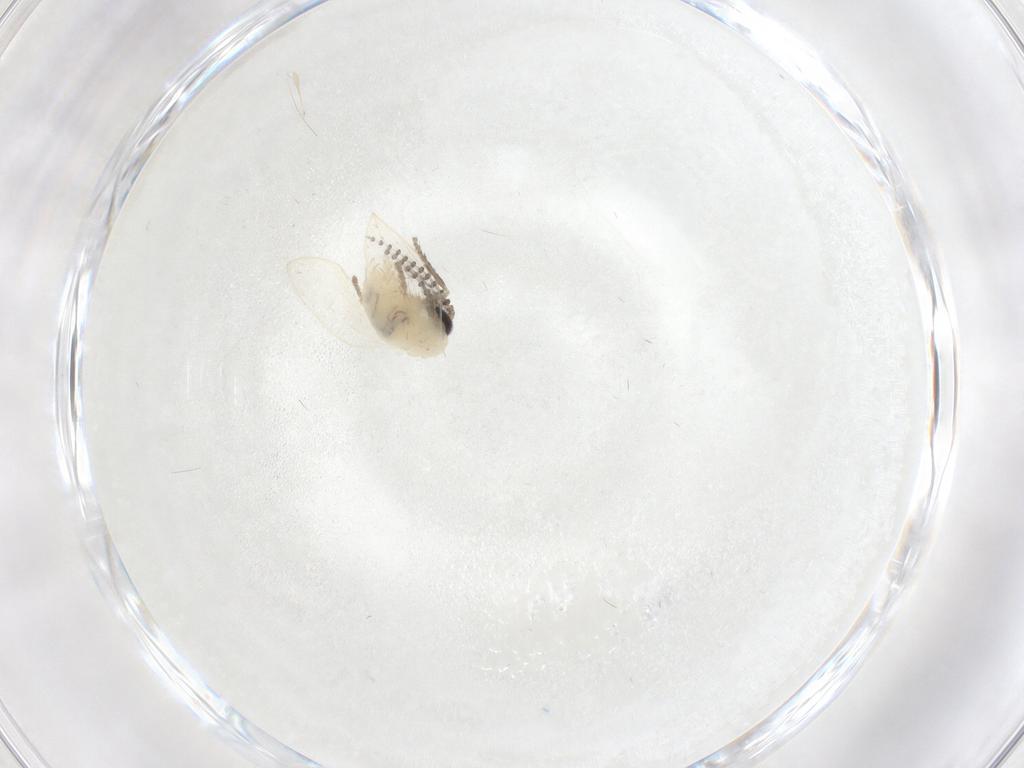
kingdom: Animalia
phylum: Arthropoda
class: Insecta
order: Diptera
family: Psychodidae
